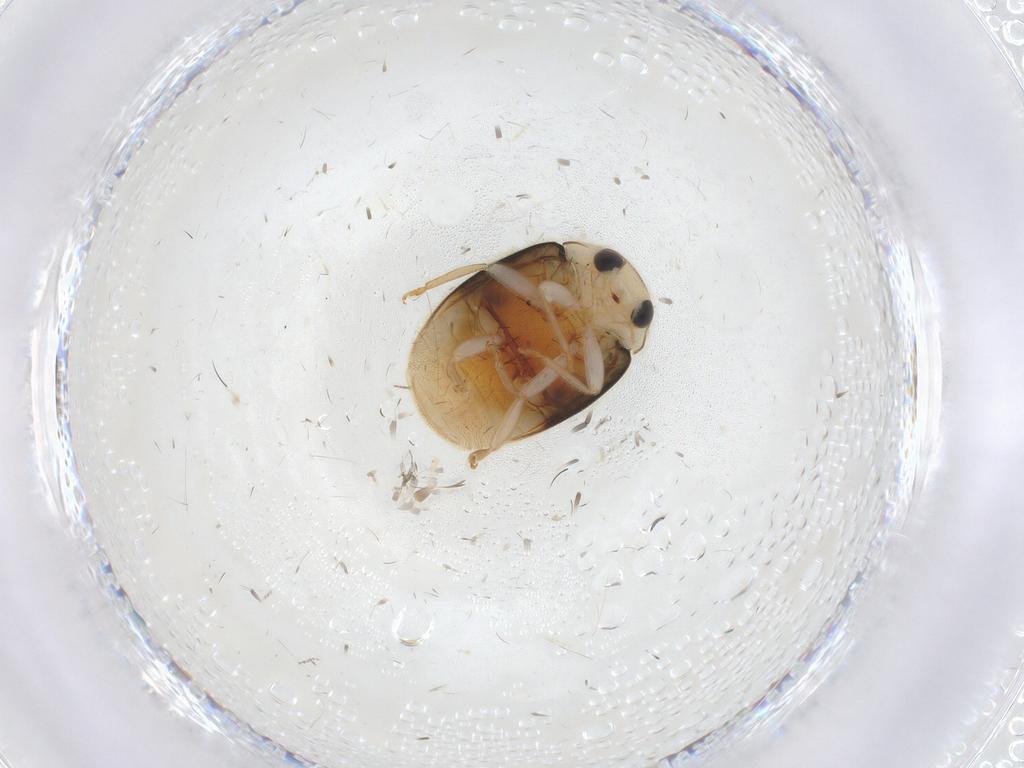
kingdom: Animalia
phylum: Arthropoda
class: Insecta
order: Coleoptera
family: Coccinellidae
